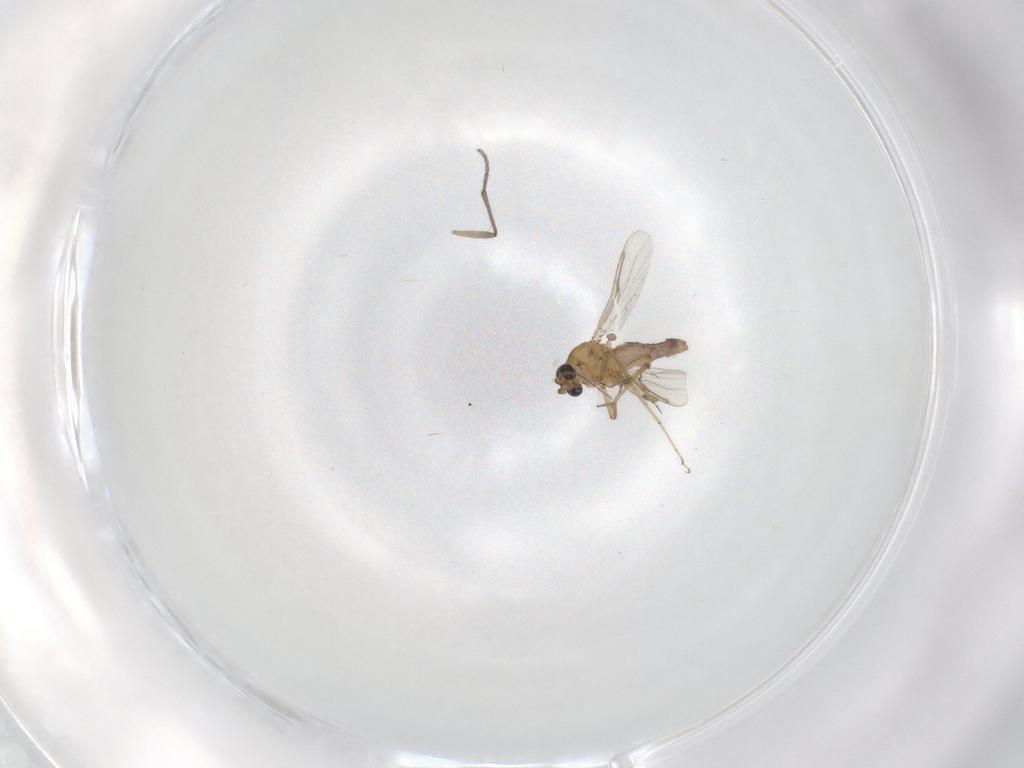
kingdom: Animalia
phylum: Arthropoda
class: Insecta
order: Diptera
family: Sciaridae
